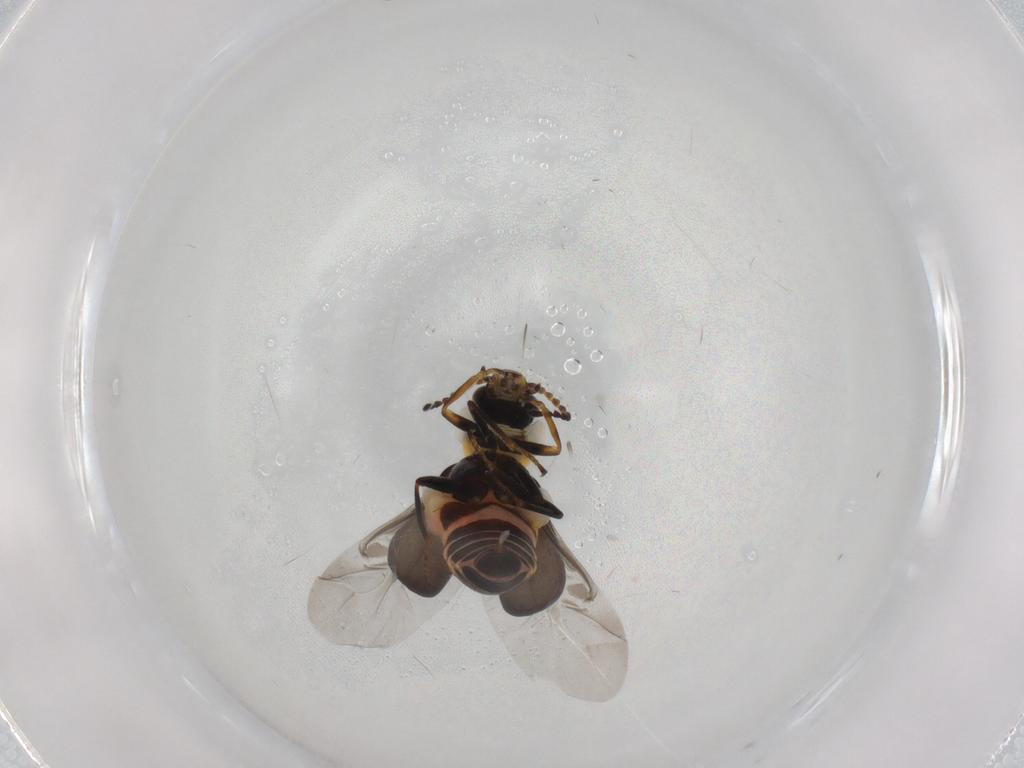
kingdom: Animalia
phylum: Arthropoda
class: Insecta
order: Coleoptera
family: Melyridae
